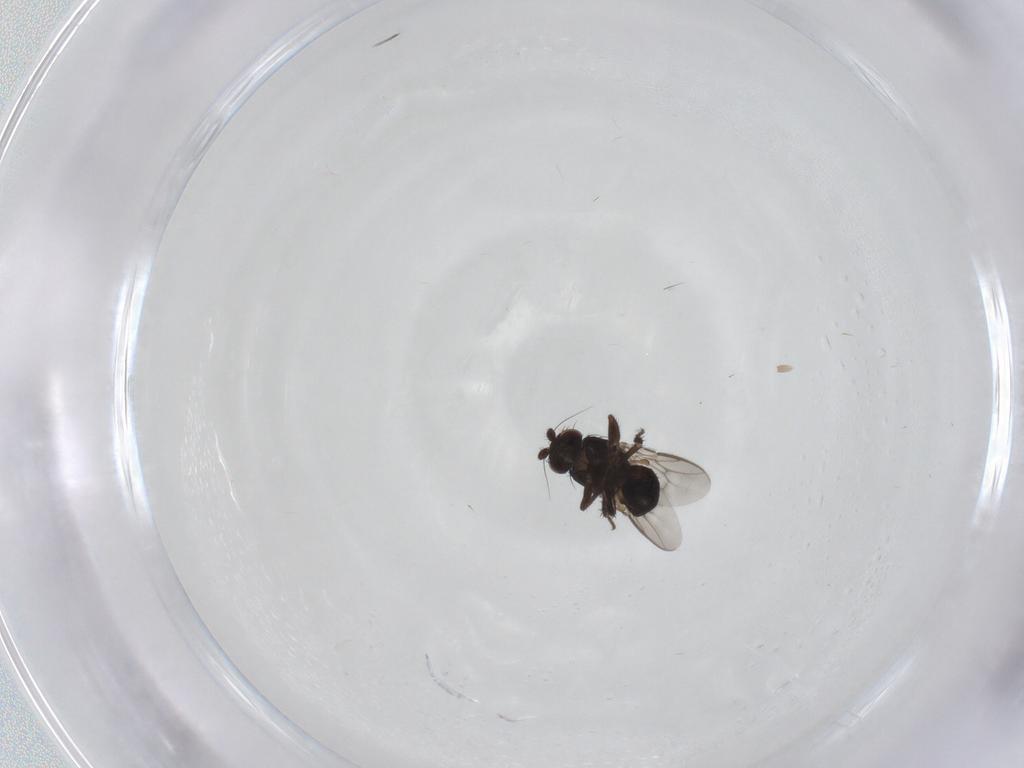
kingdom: Animalia
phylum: Arthropoda
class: Insecta
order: Diptera
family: Sphaeroceridae
